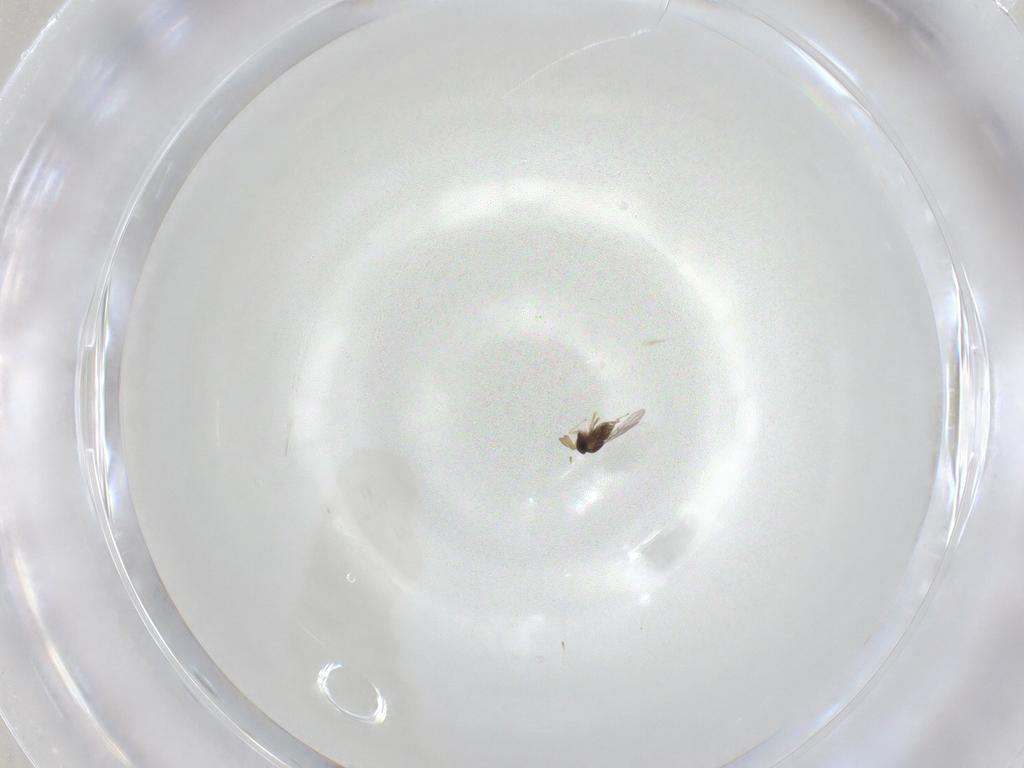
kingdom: Animalia
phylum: Arthropoda
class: Insecta
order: Hymenoptera
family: Encyrtidae
